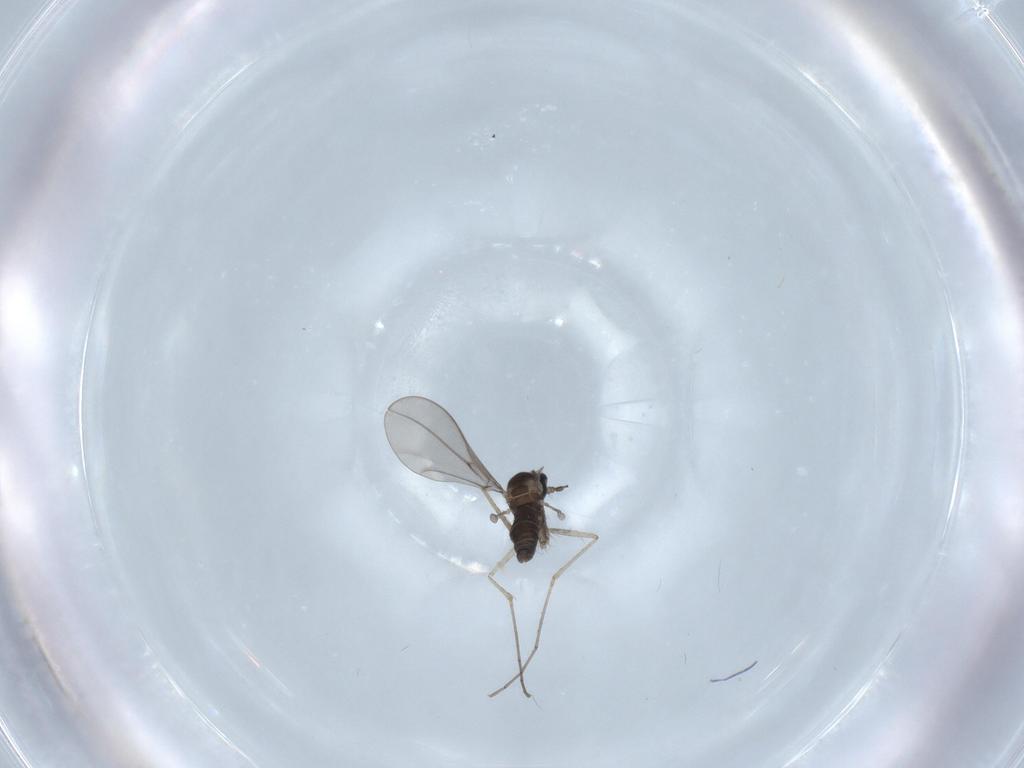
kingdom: Animalia
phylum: Arthropoda
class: Insecta
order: Diptera
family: Cecidomyiidae
